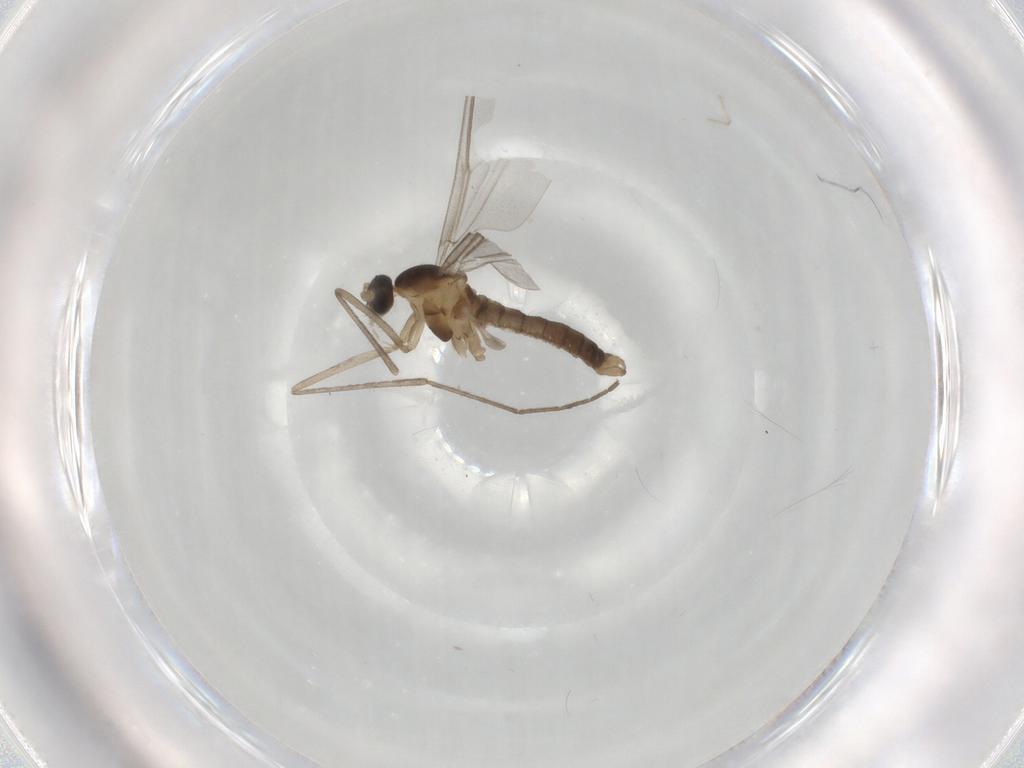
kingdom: Animalia
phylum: Arthropoda
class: Insecta
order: Diptera
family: Cecidomyiidae
